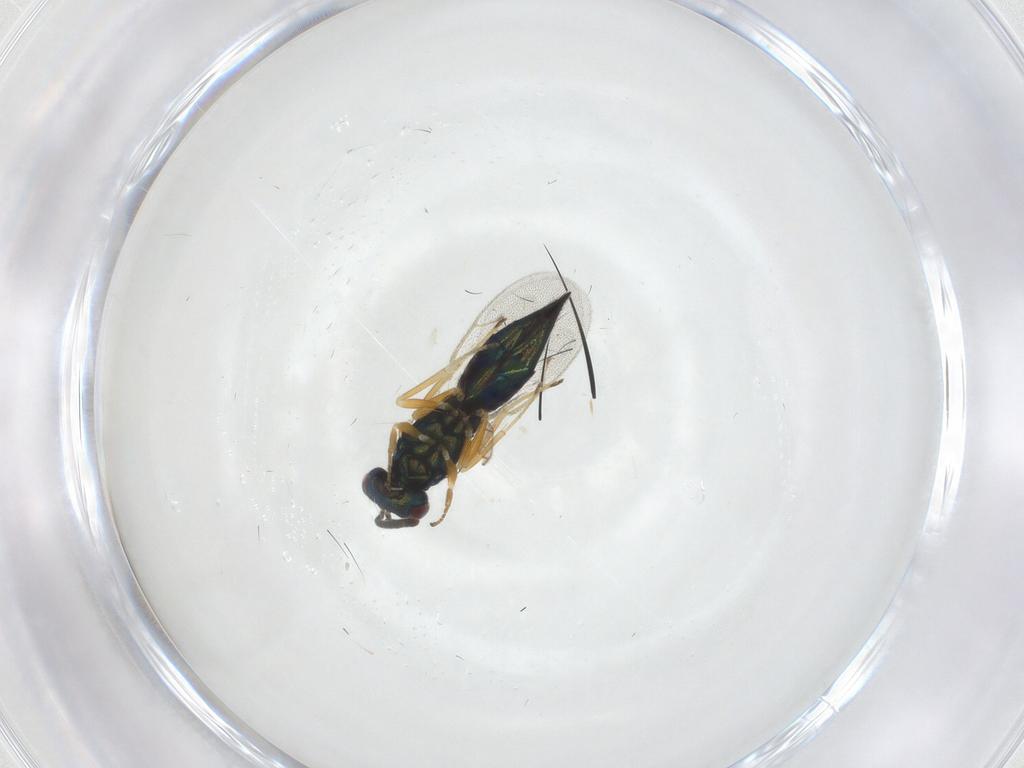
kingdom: Animalia
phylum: Arthropoda
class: Insecta
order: Hymenoptera
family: Pteromalidae
